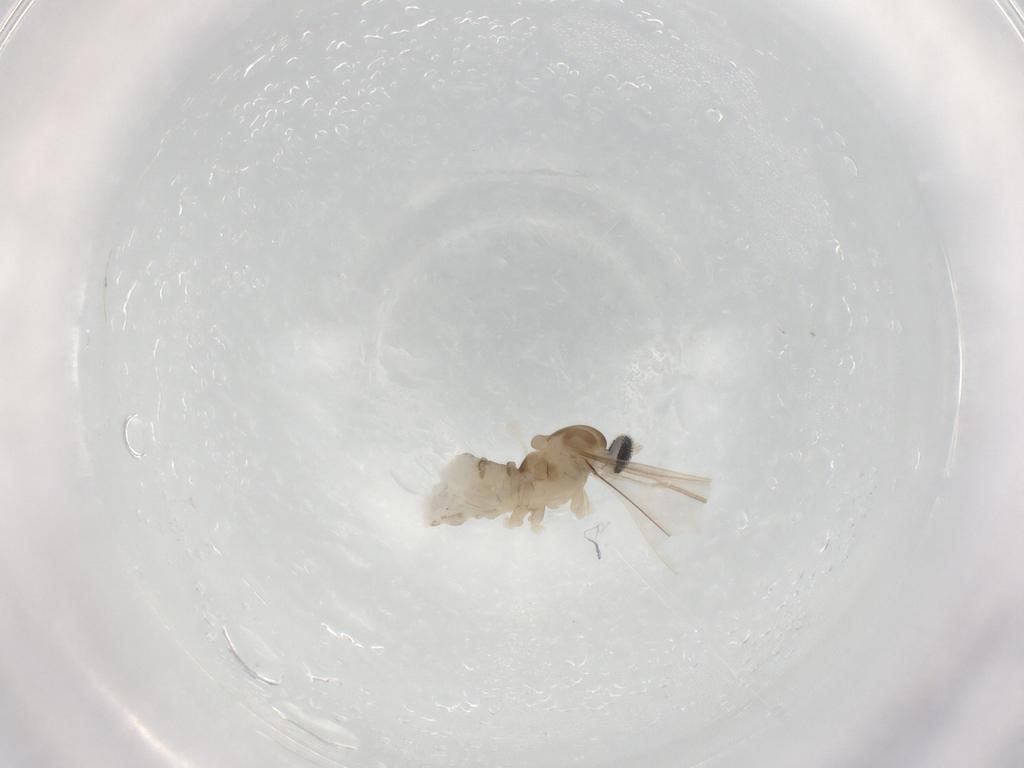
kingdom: Animalia
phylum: Arthropoda
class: Insecta
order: Diptera
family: Cecidomyiidae
